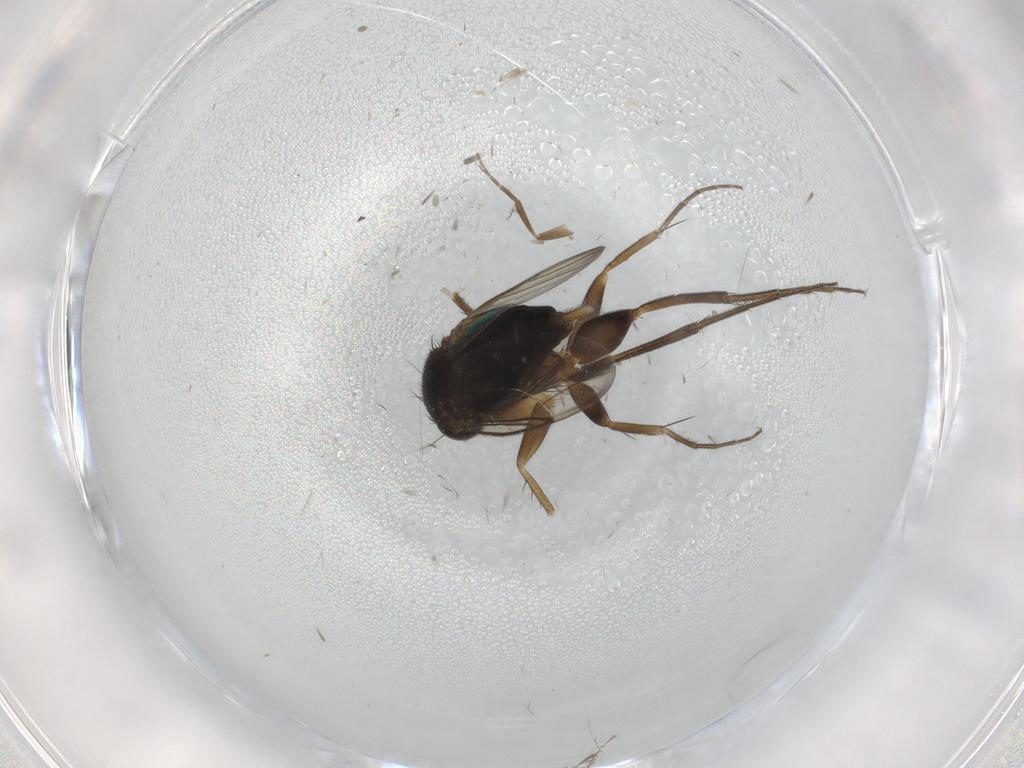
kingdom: Animalia
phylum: Arthropoda
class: Insecta
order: Diptera
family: Phoridae
